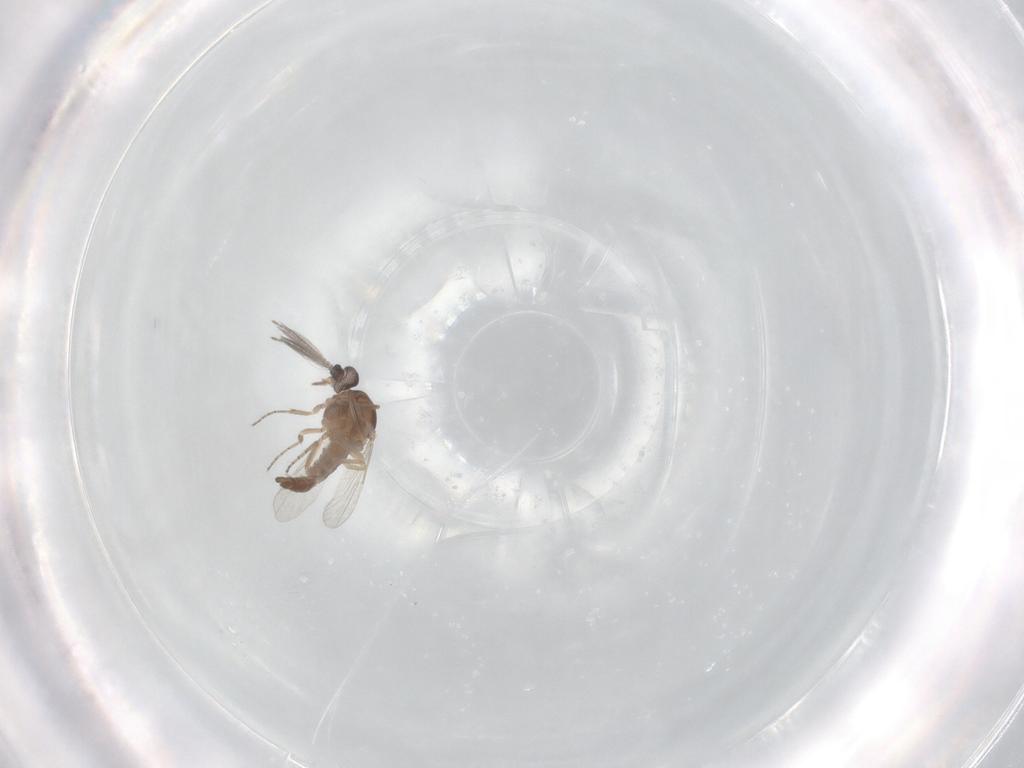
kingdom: Animalia
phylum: Arthropoda
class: Insecta
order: Diptera
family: Ceratopogonidae
